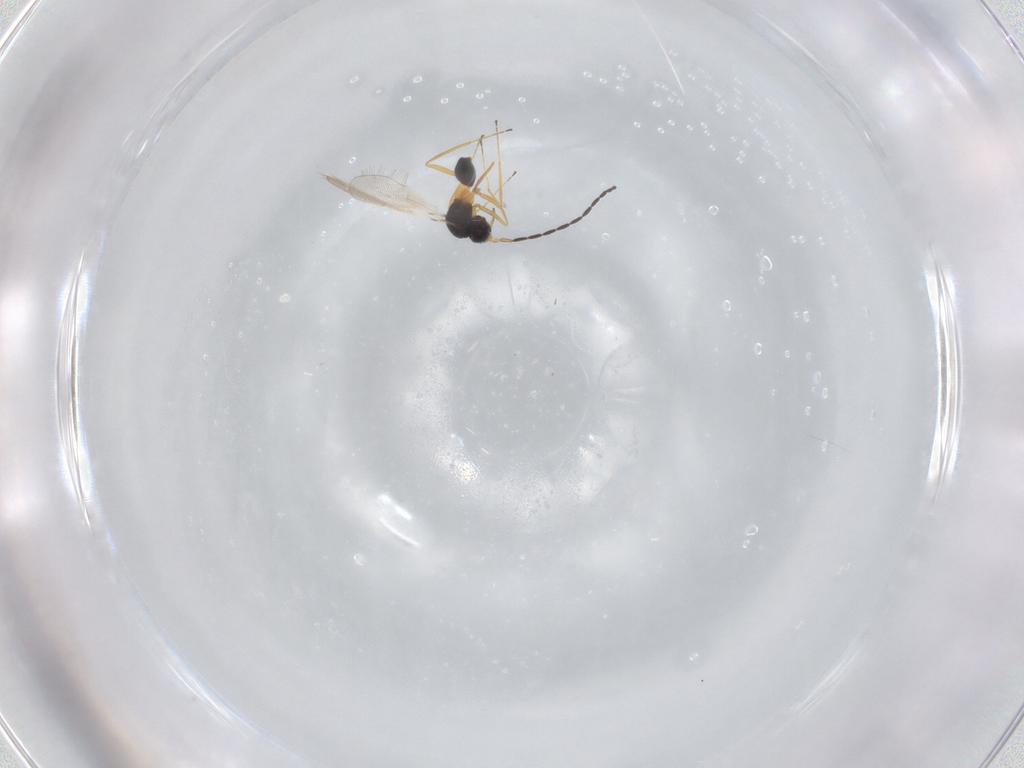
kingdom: Animalia
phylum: Arthropoda
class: Insecta
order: Hymenoptera
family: Mymaridae
